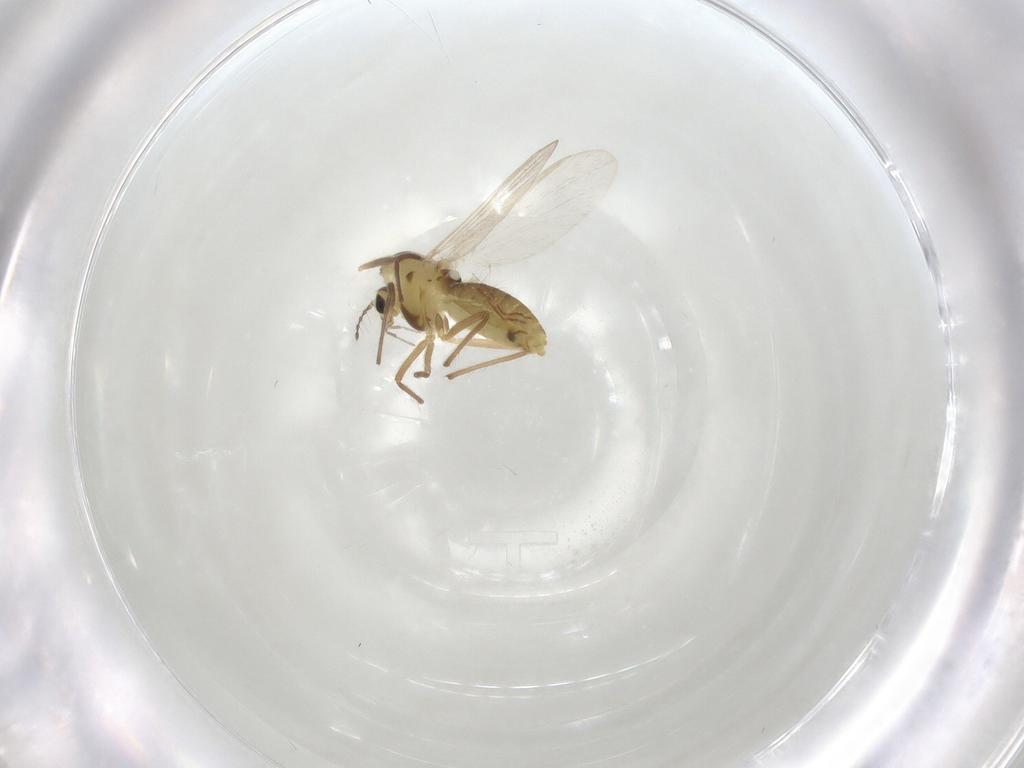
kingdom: Animalia
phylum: Arthropoda
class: Insecta
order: Diptera
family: Chironomidae
